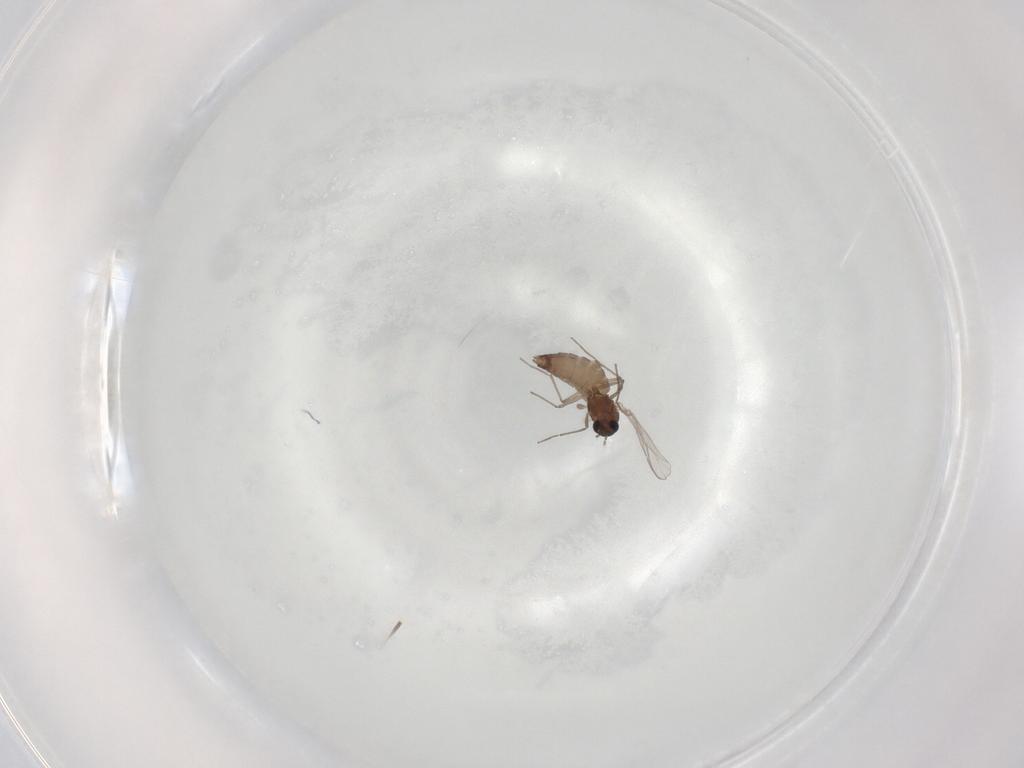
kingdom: Animalia
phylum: Arthropoda
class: Insecta
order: Diptera
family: Chironomidae
